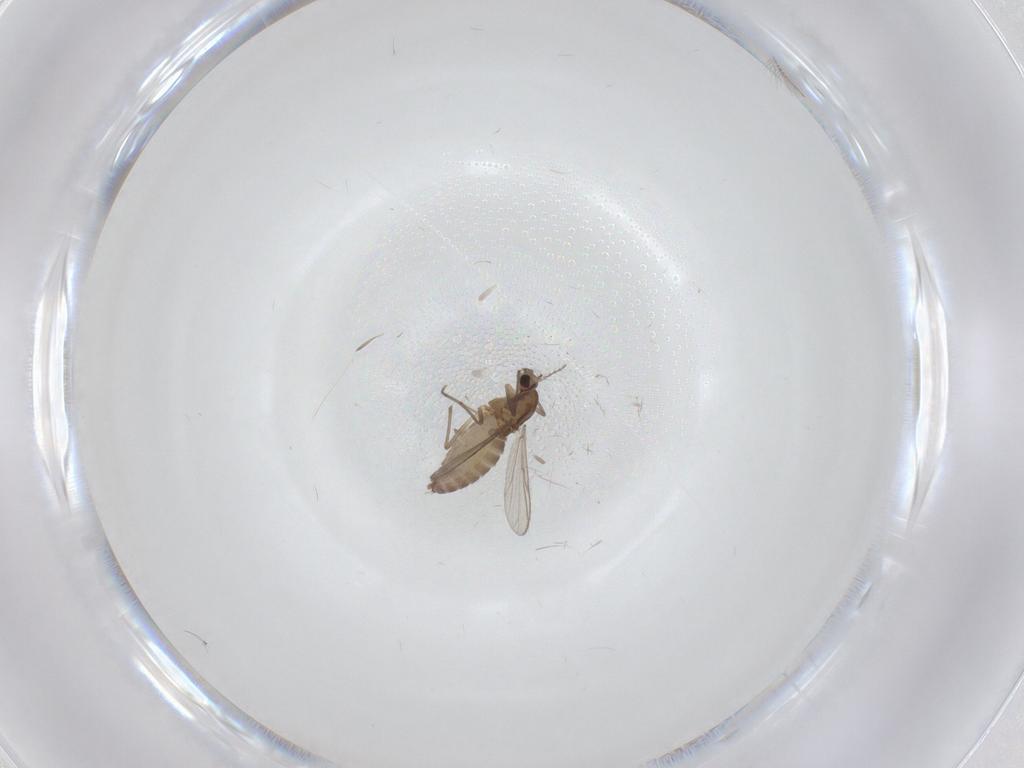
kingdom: Animalia
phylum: Arthropoda
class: Insecta
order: Diptera
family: Chironomidae
